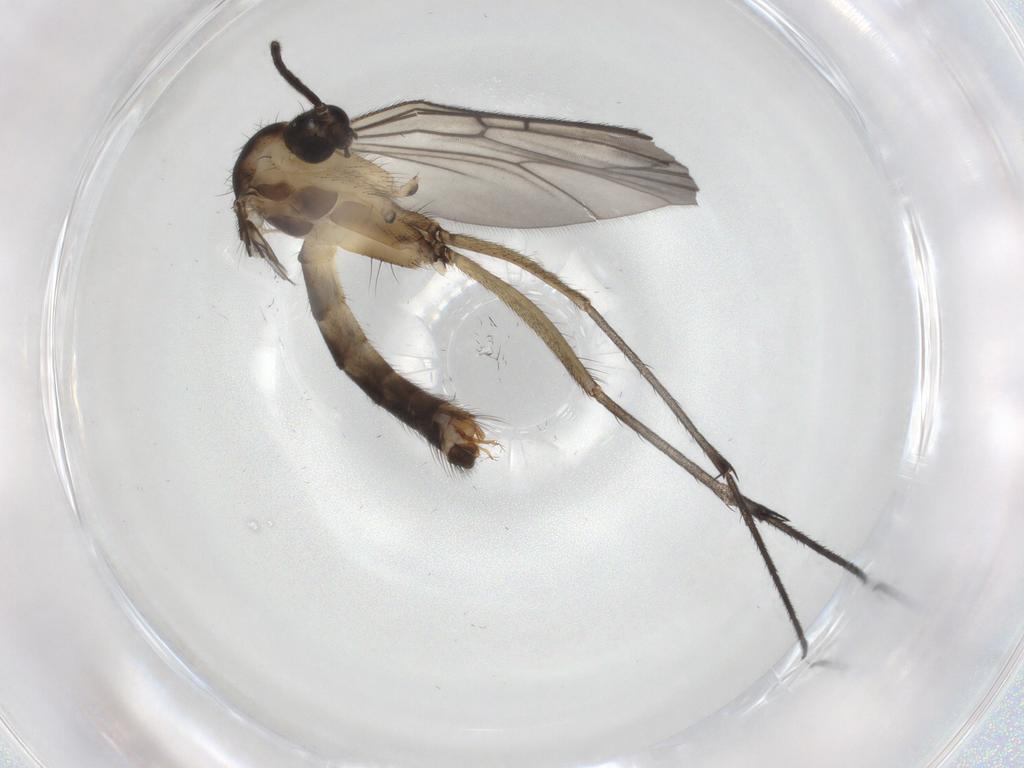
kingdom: Animalia
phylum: Arthropoda
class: Insecta
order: Diptera
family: Mycetophilidae
